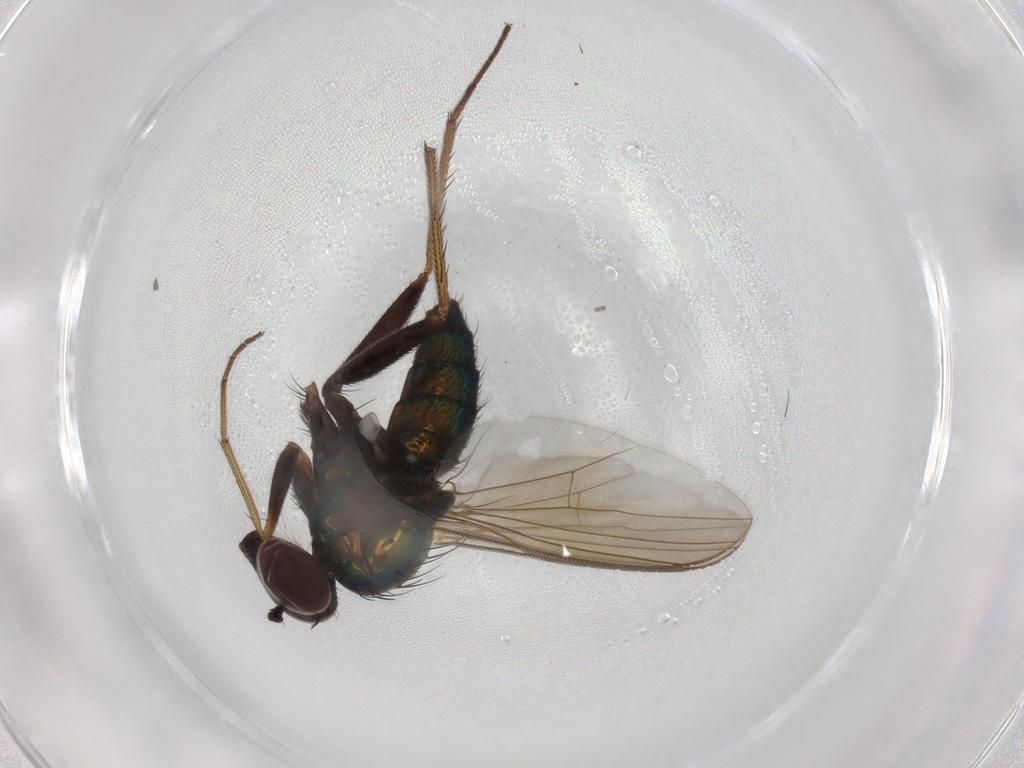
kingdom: Animalia
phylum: Arthropoda
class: Insecta
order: Diptera
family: Dolichopodidae
